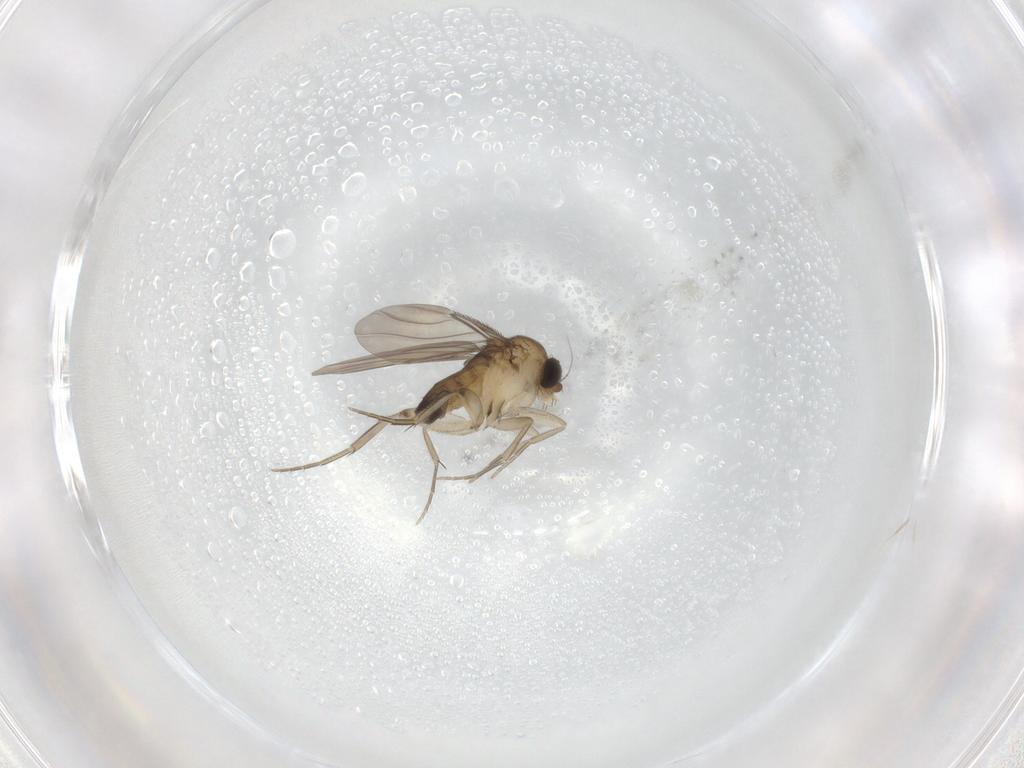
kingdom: Animalia
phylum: Arthropoda
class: Insecta
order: Diptera
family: Phoridae
